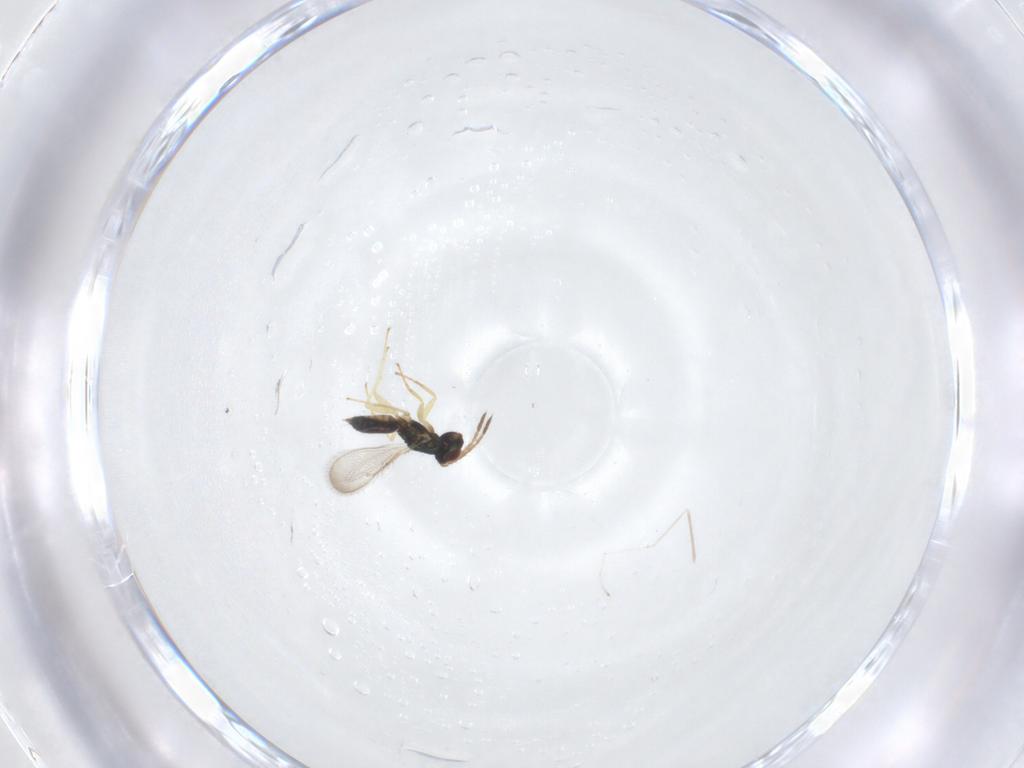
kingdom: Animalia
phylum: Arthropoda
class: Insecta
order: Hymenoptera
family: Eulophidae
